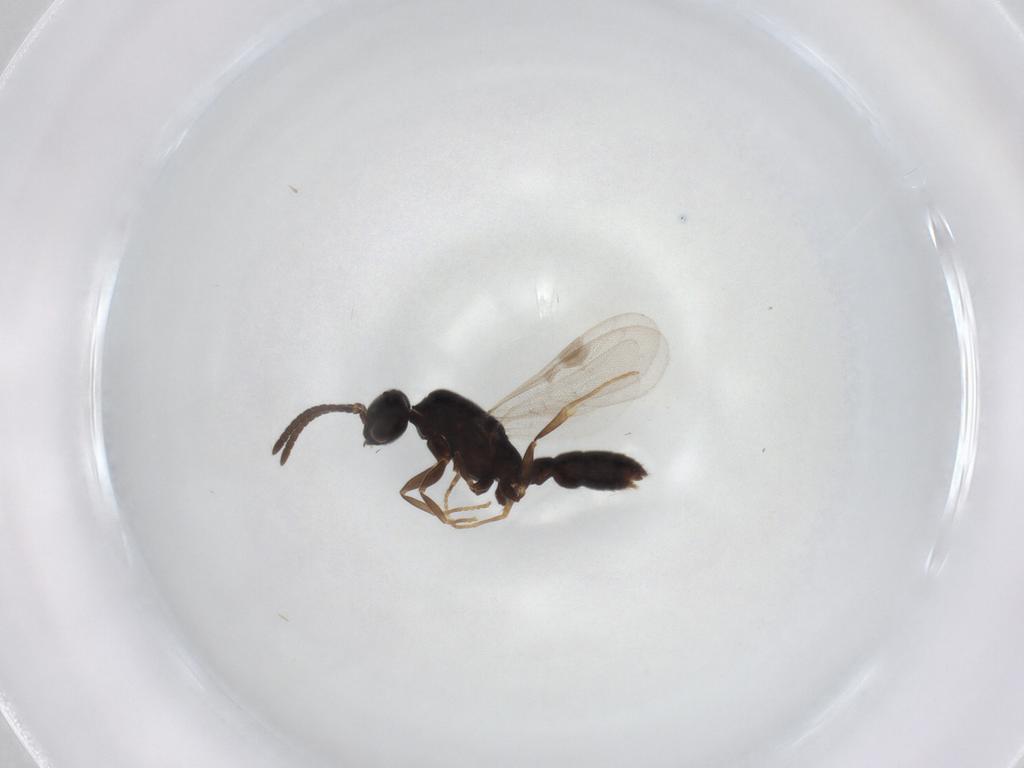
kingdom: Animalia
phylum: Arthropoda
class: Insecta
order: Hymenoptera
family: Formicidae
